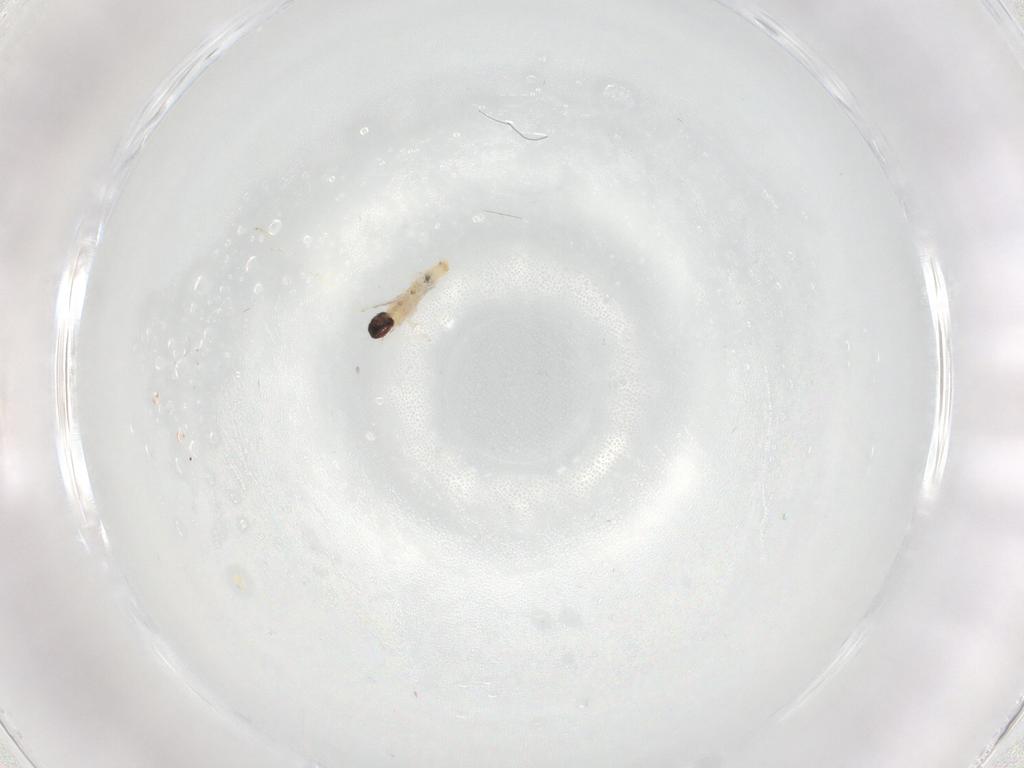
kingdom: Animalia
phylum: Arthropoda
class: Insecta
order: Diptera
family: Cecidomyiidae
